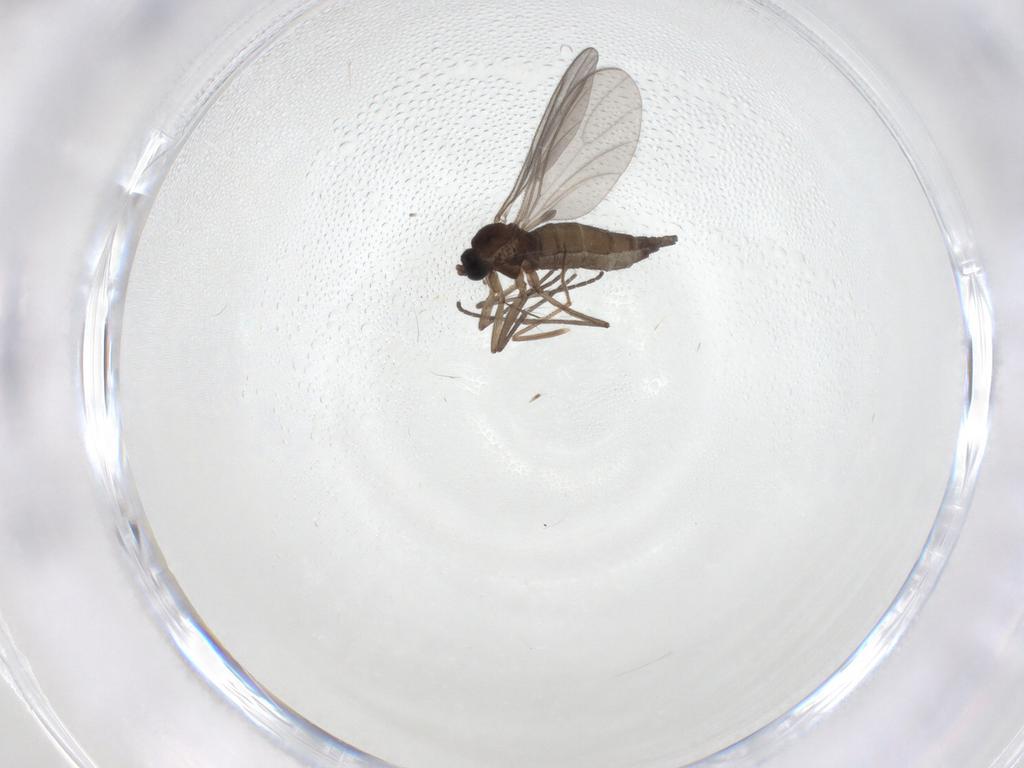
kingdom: Animalia
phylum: Arthropoda
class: Insecta
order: Diptera
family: Chironomidae
